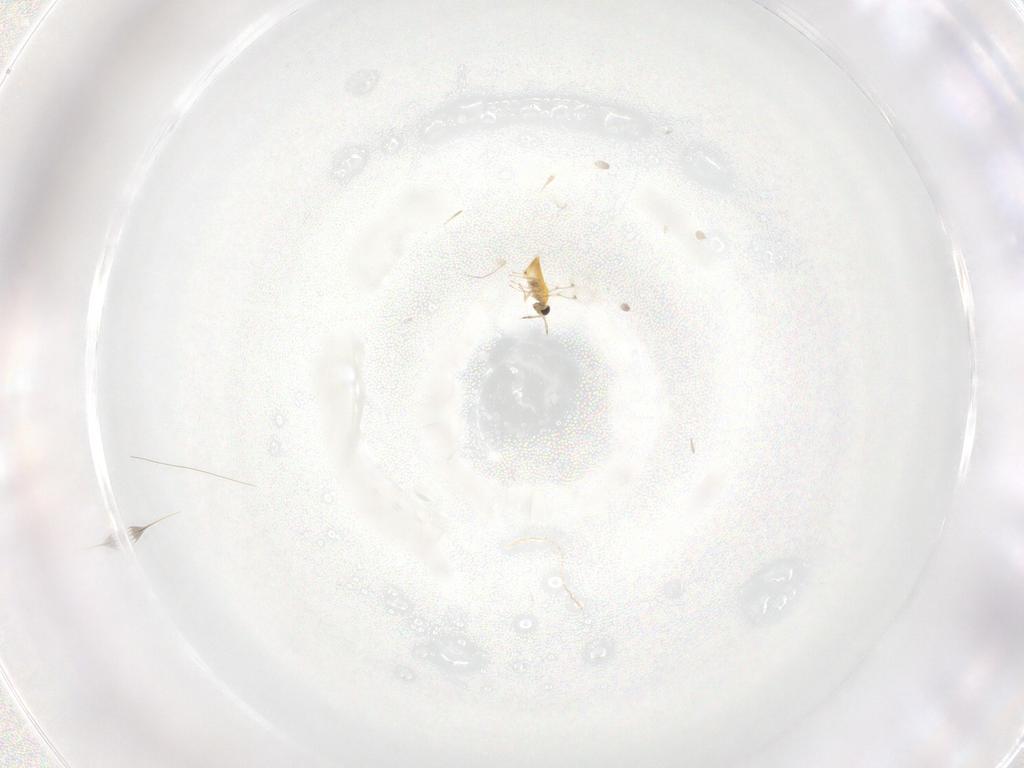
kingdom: Animalia
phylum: Arthropoda
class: Insecta
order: Hymenoptera
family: Trichogrammatidae
